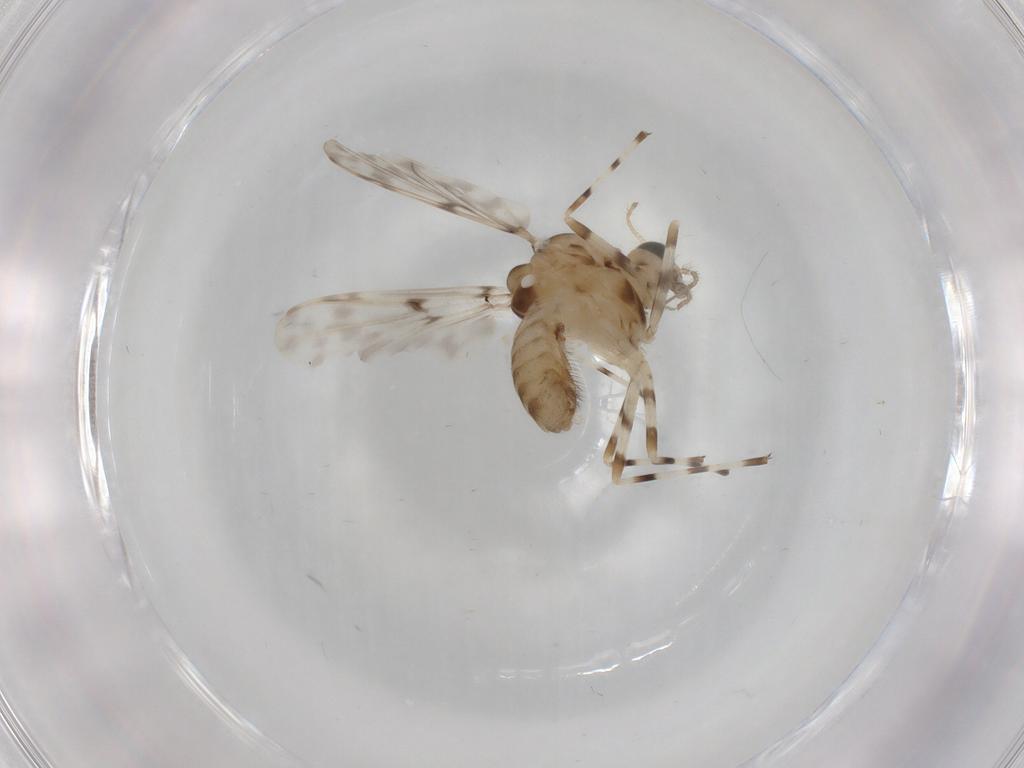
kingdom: Animalia
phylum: Arthropoda
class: Insecta
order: Diptera
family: Chironomidae
